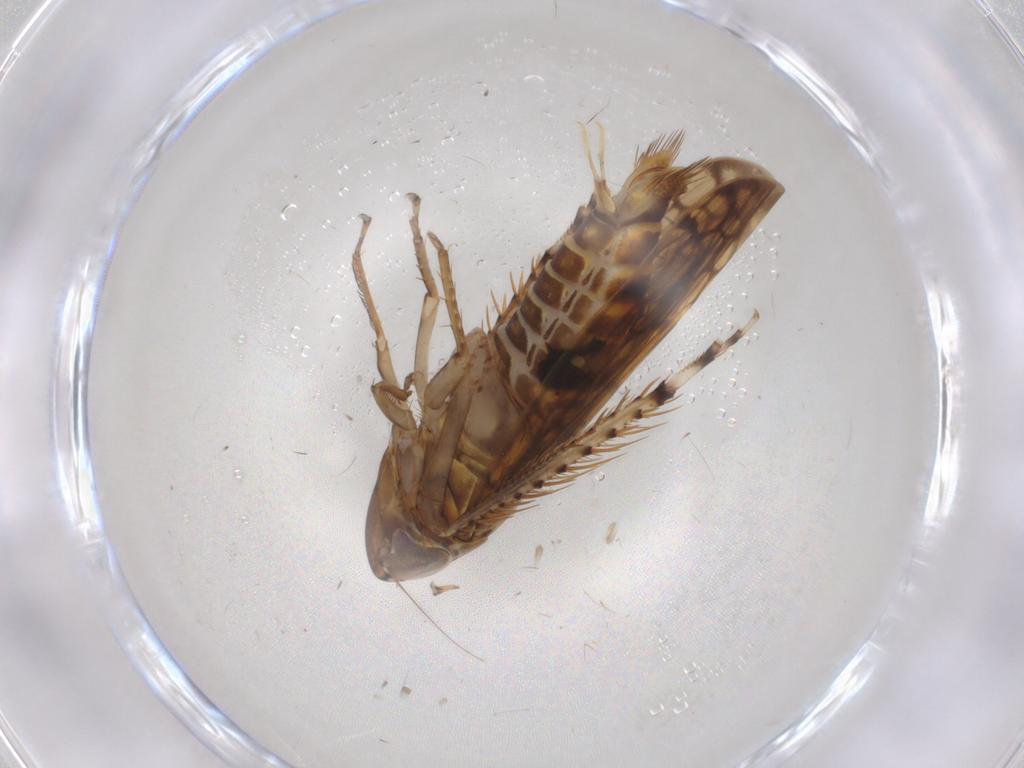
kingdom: Animalia
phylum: Arthropoda
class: Insecta
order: Hemiptera
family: Cicadellidae
